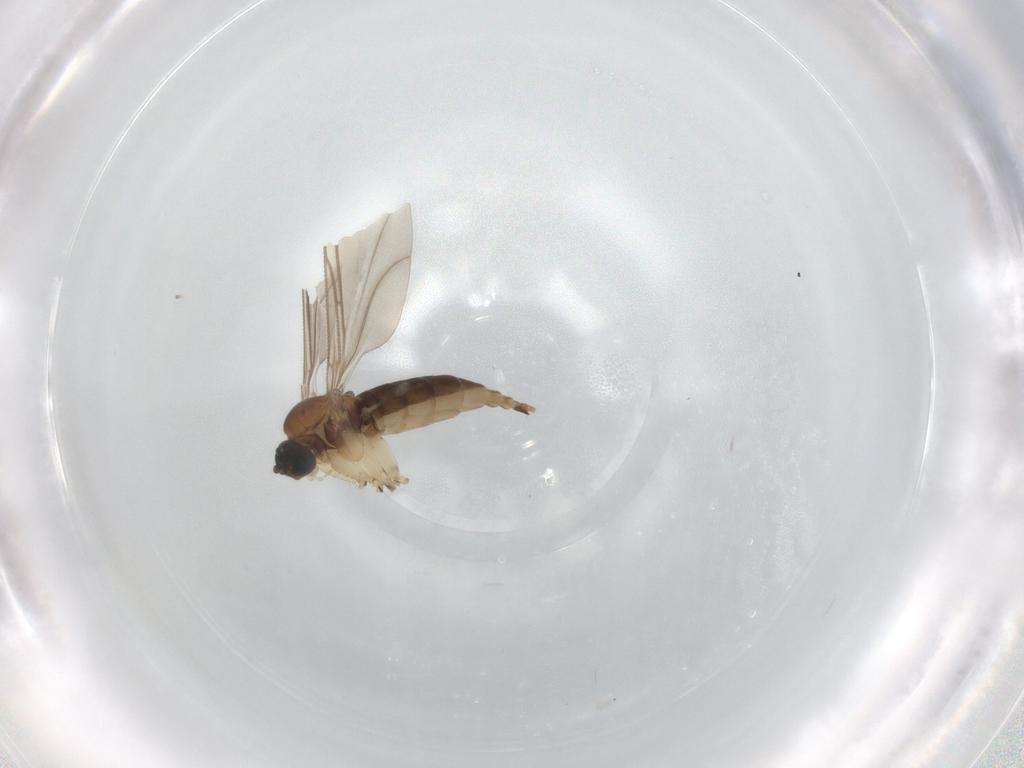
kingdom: Animalia
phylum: Arthropoda
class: Insecta
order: Diptera
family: Sciaridae
